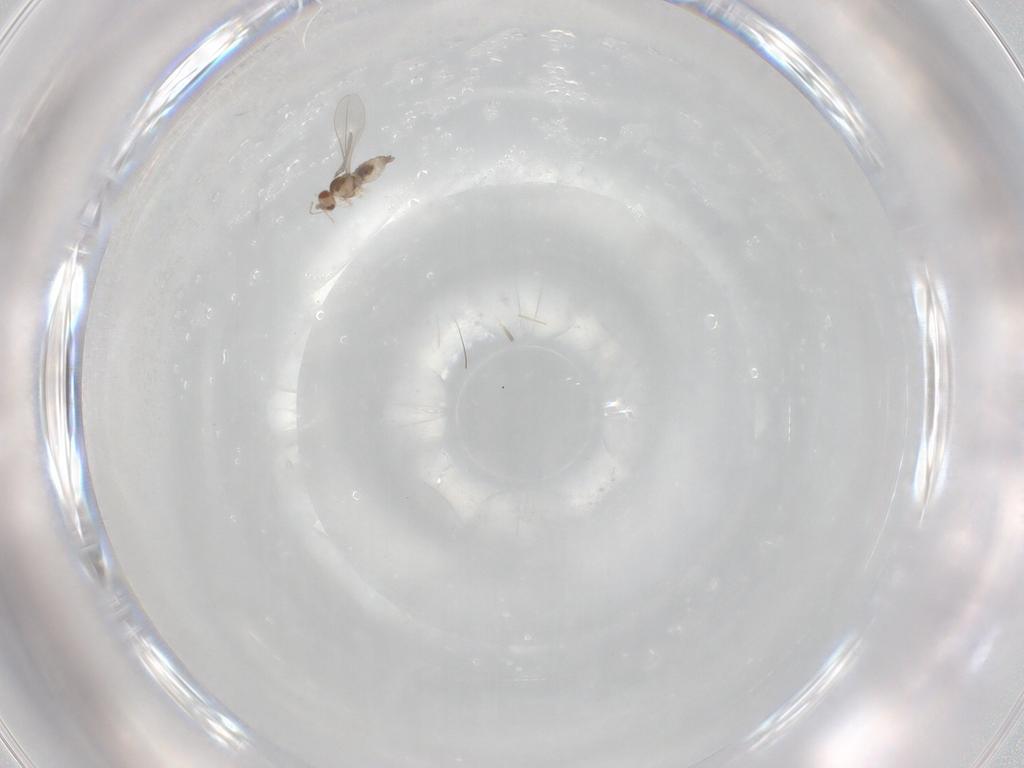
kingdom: Animalia
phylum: Arthropoda
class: Insecta
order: Diptera
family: Cecidomyiidae
